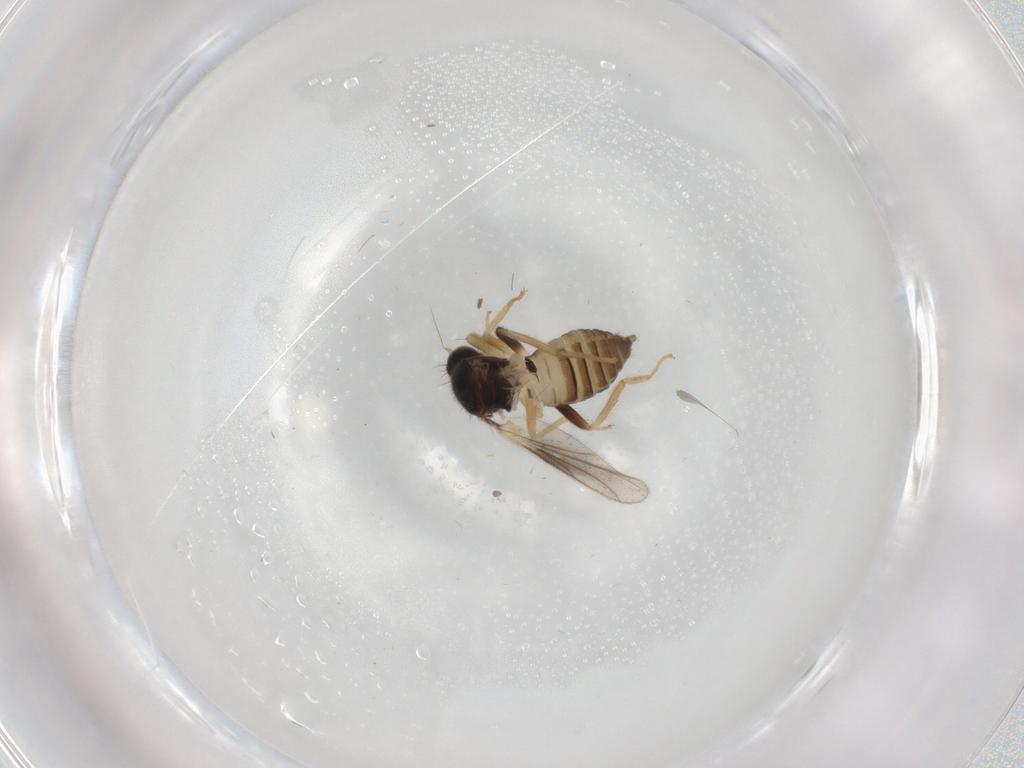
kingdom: Animalia
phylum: Arthropoda
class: Insecta
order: Diptera
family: Hybotidae
